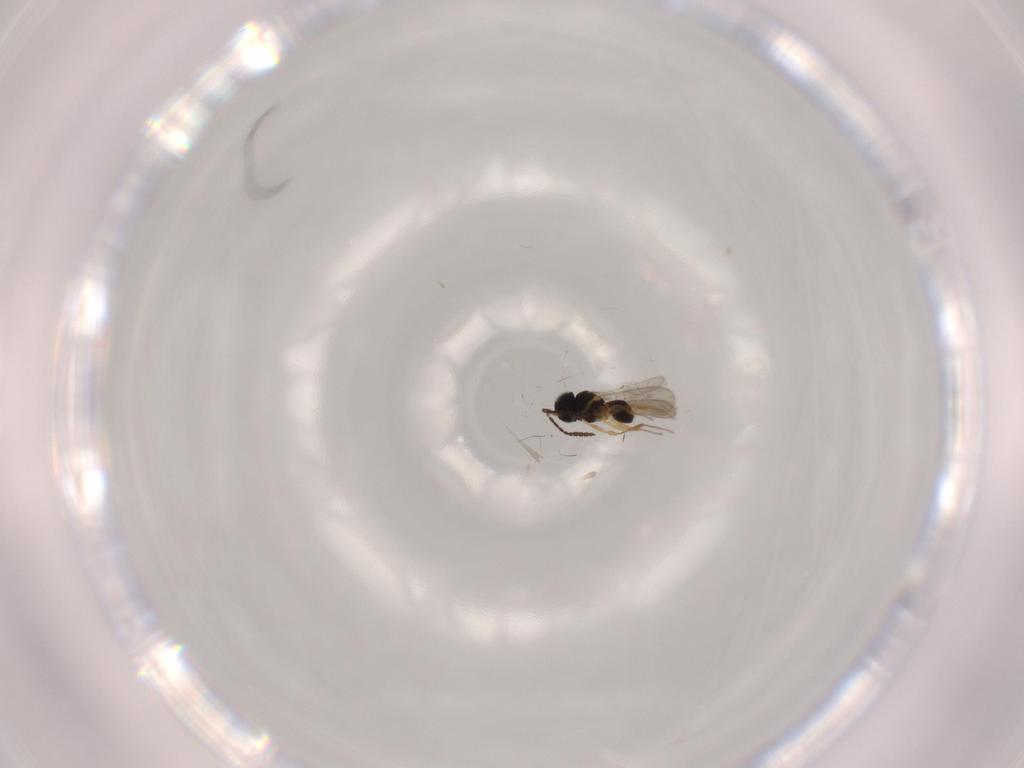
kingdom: Animalia
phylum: Arthropoda
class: Insecta
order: Hymenoptera
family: Scelionidae
